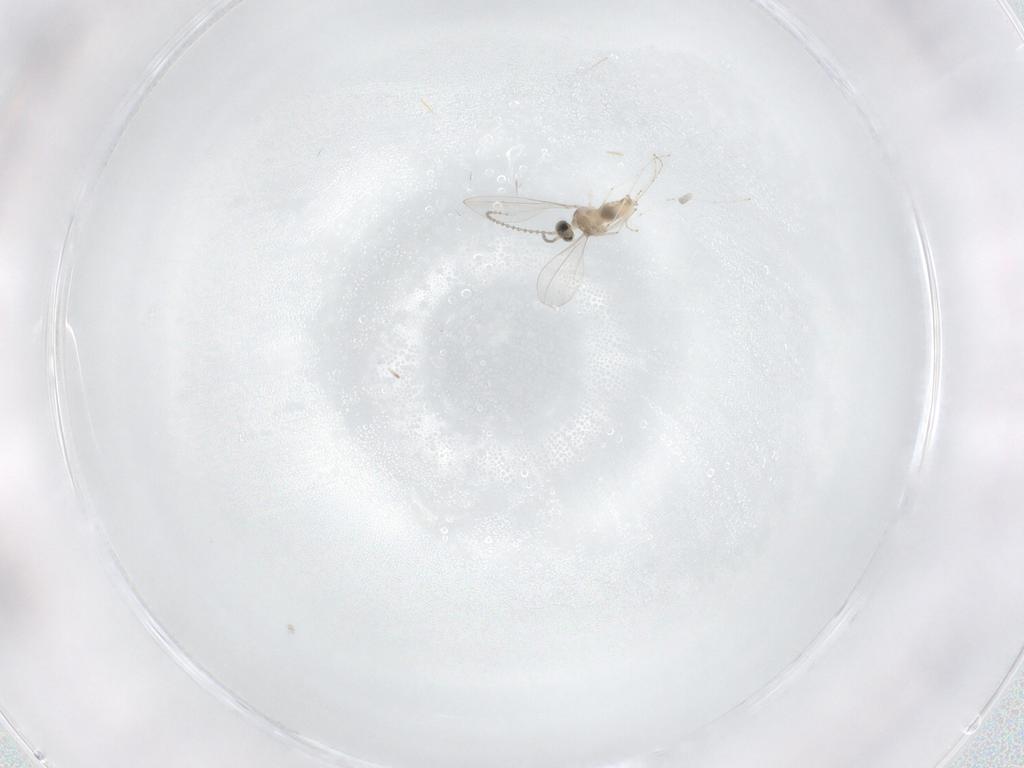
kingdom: Animalia
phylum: Arthropoda
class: Insecta
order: Diptera
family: Cecidomyiidae
